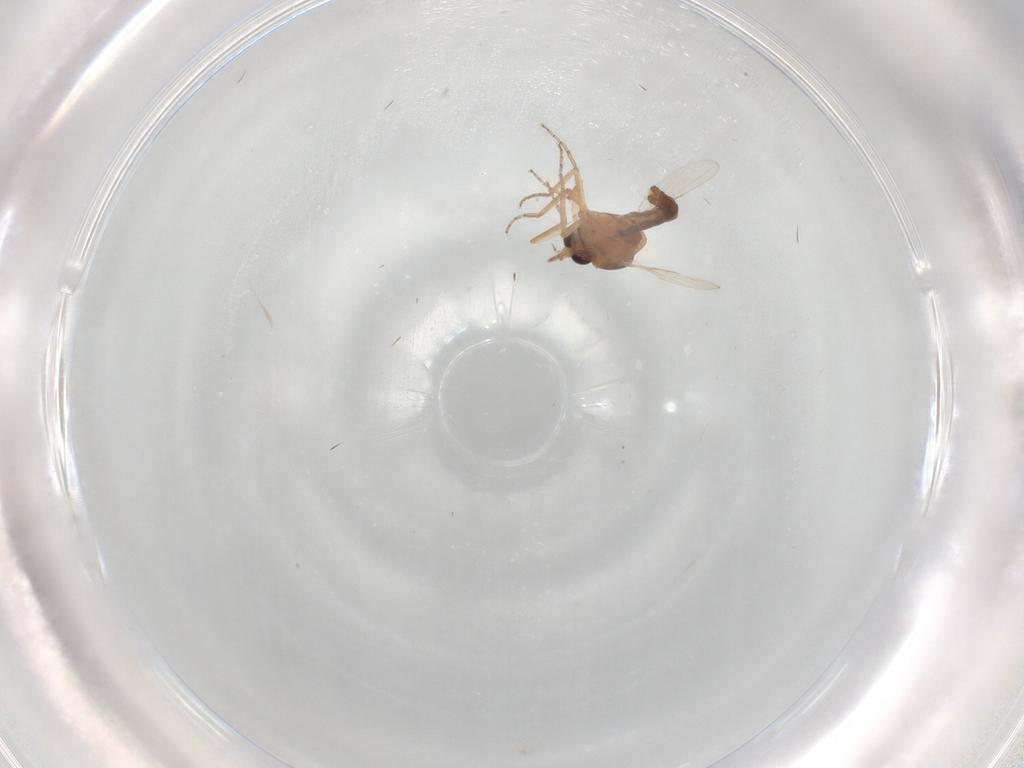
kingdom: Animalia
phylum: Arthropoda
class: Insecta
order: Diptera
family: Ceratopogonidae
